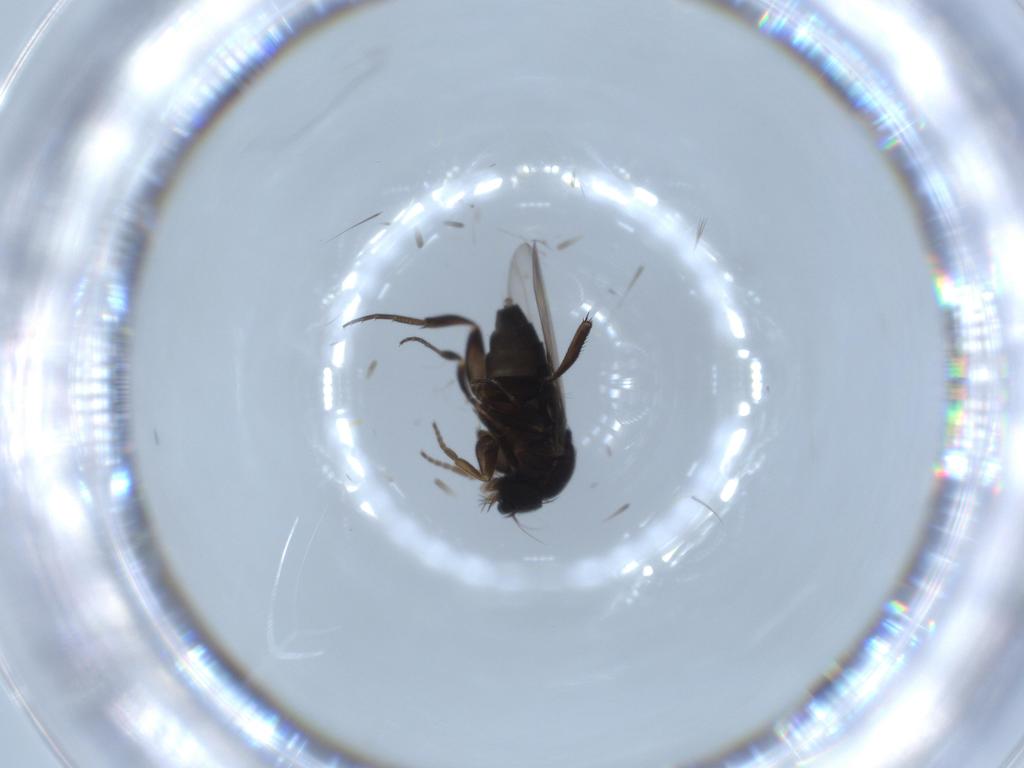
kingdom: Animalia
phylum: Arthropoda
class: Insecta
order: Diptera
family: Phoridae
